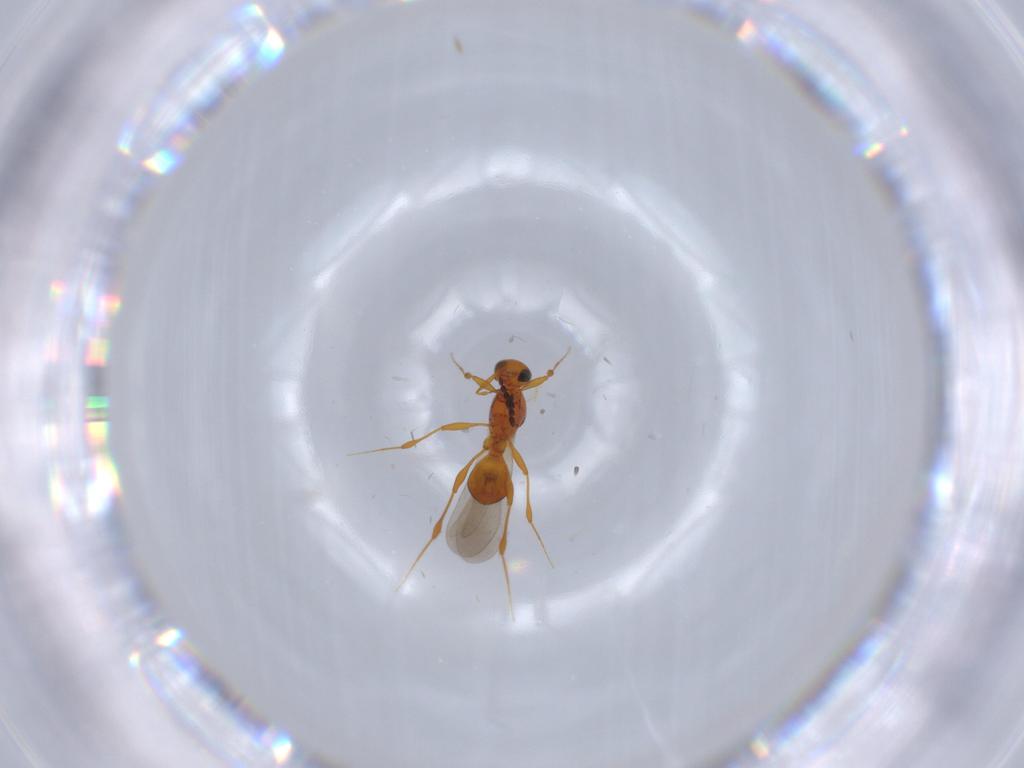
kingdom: Animalia
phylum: Arthropoda
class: Insecta
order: Hymenoptera
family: Platygastridae
